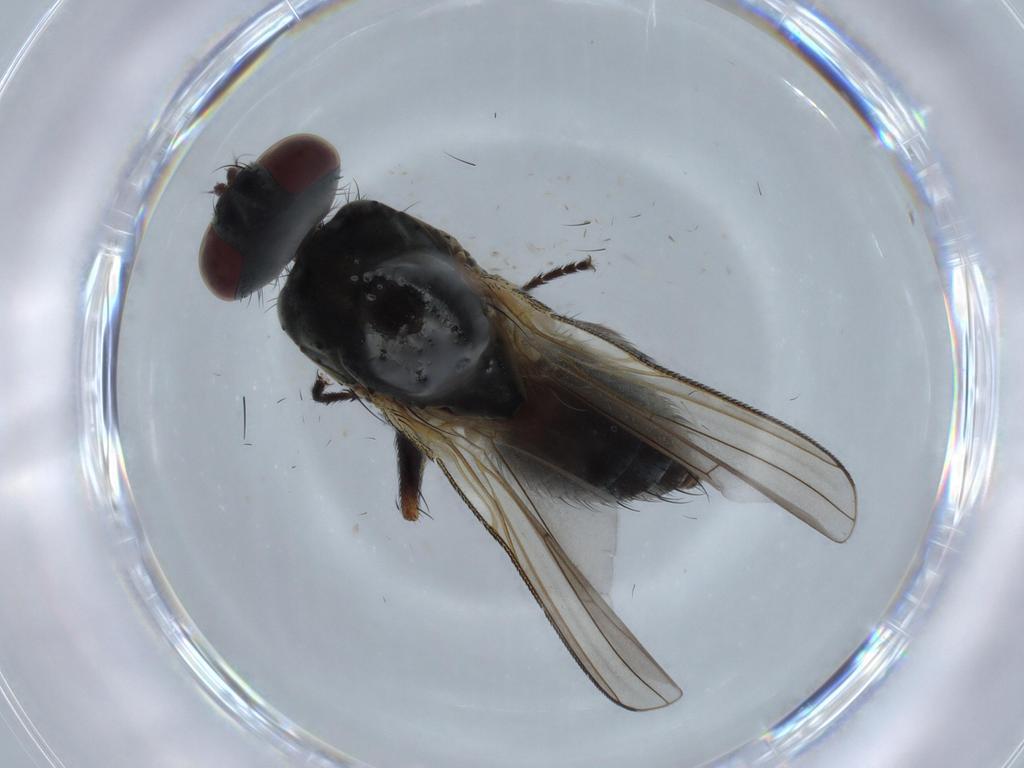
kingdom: Animalia
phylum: Arthropoda
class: Insecta
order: Diptera
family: Muscidae
